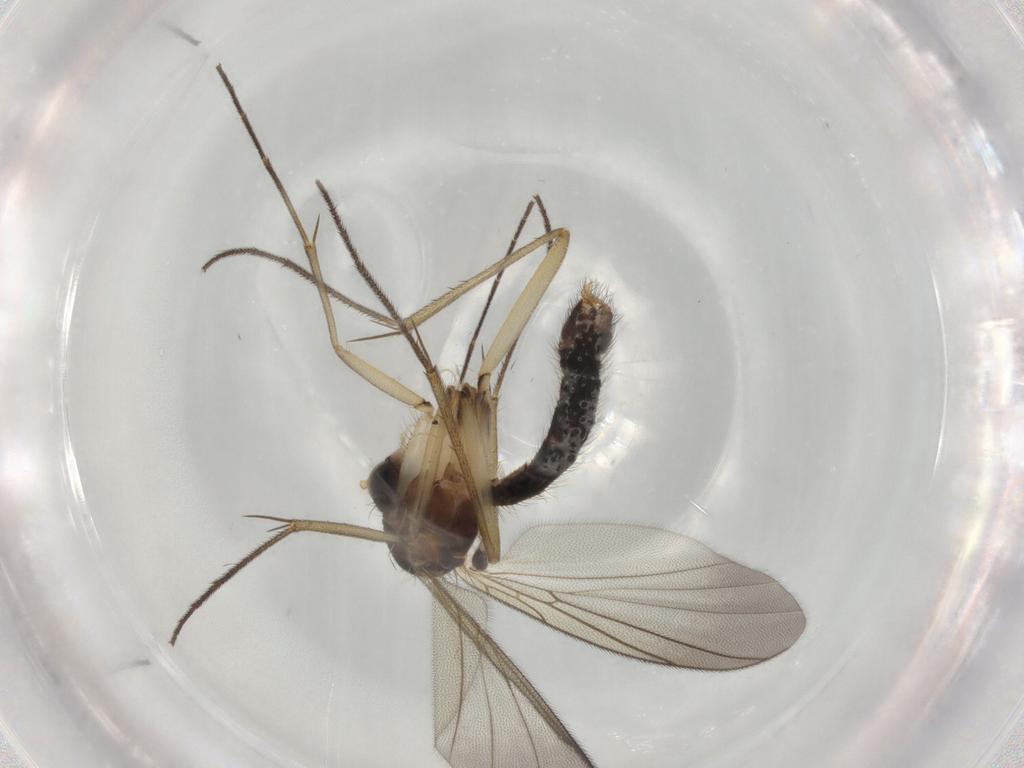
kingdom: Animalia
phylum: Arthropoda
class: Insecta
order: Diptera
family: Mycetophilidae
